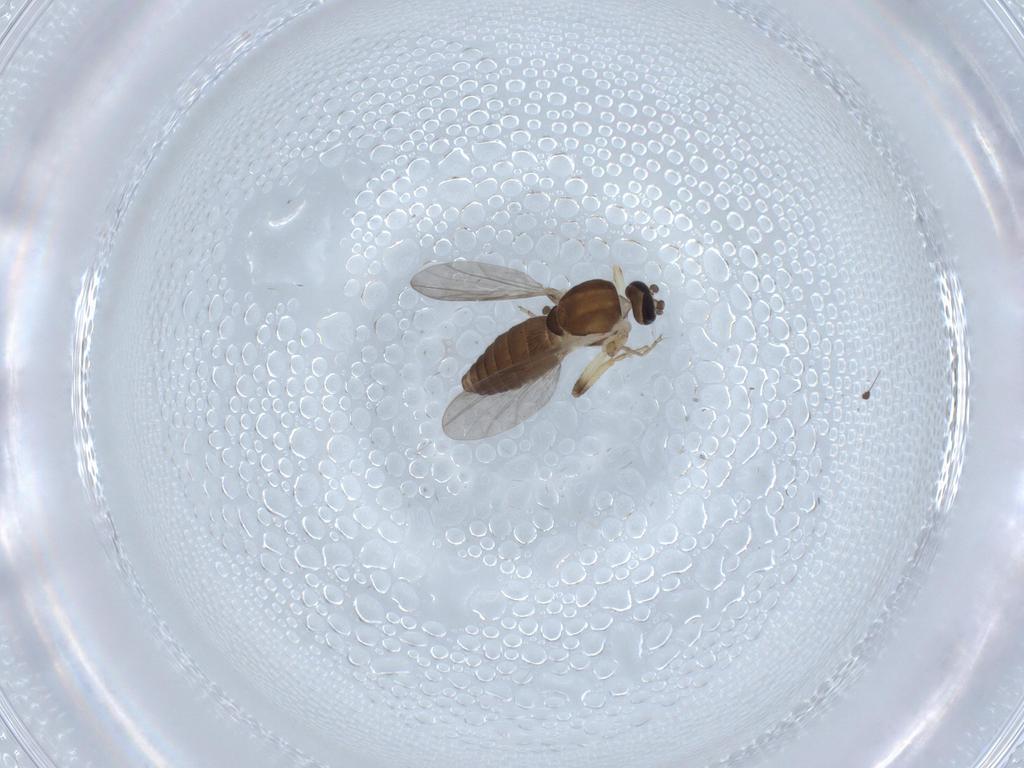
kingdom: Animalia
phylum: Arthropoda
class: Insecta
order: Diptera
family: Ceratopogonidae
